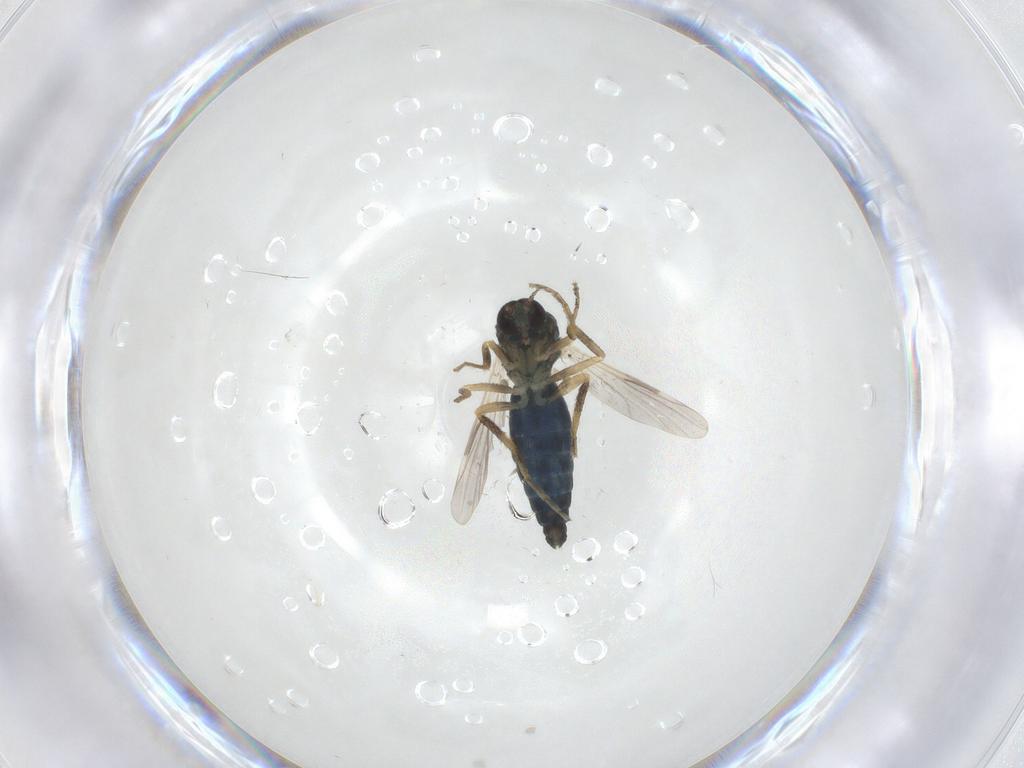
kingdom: Animalia
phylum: Arthropoda
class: Insecta
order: Diptera
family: Ceratopogonidae
